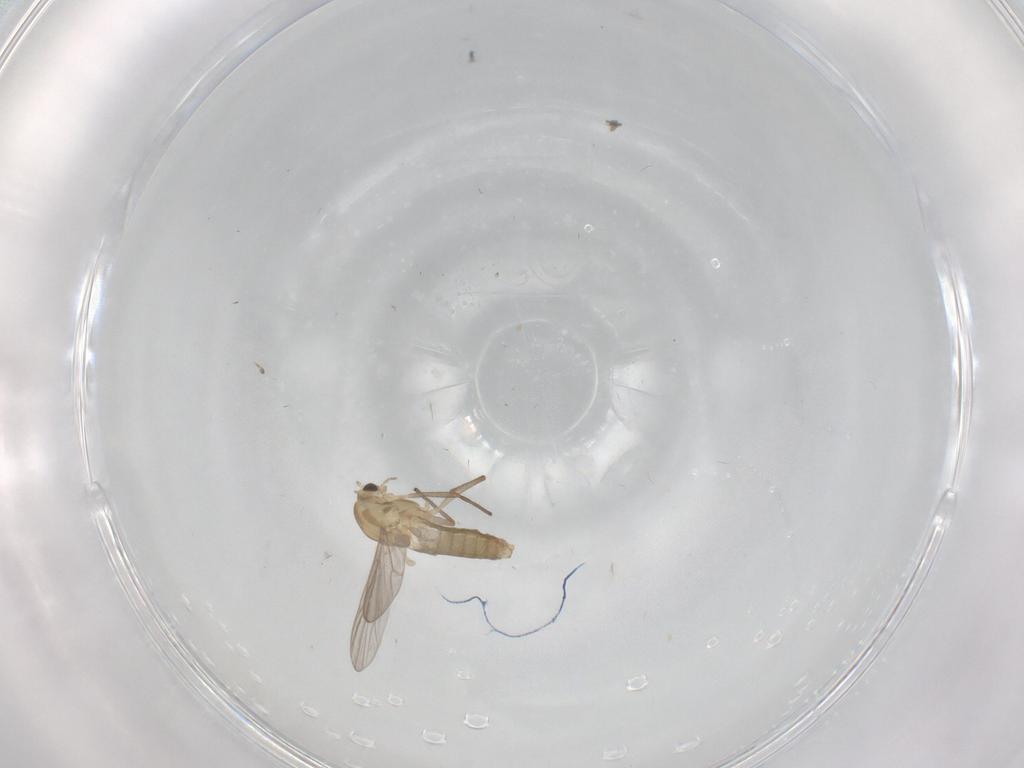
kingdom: Animalia
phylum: Arthropoda
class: Insecta
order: Diptera
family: Chironomidae
